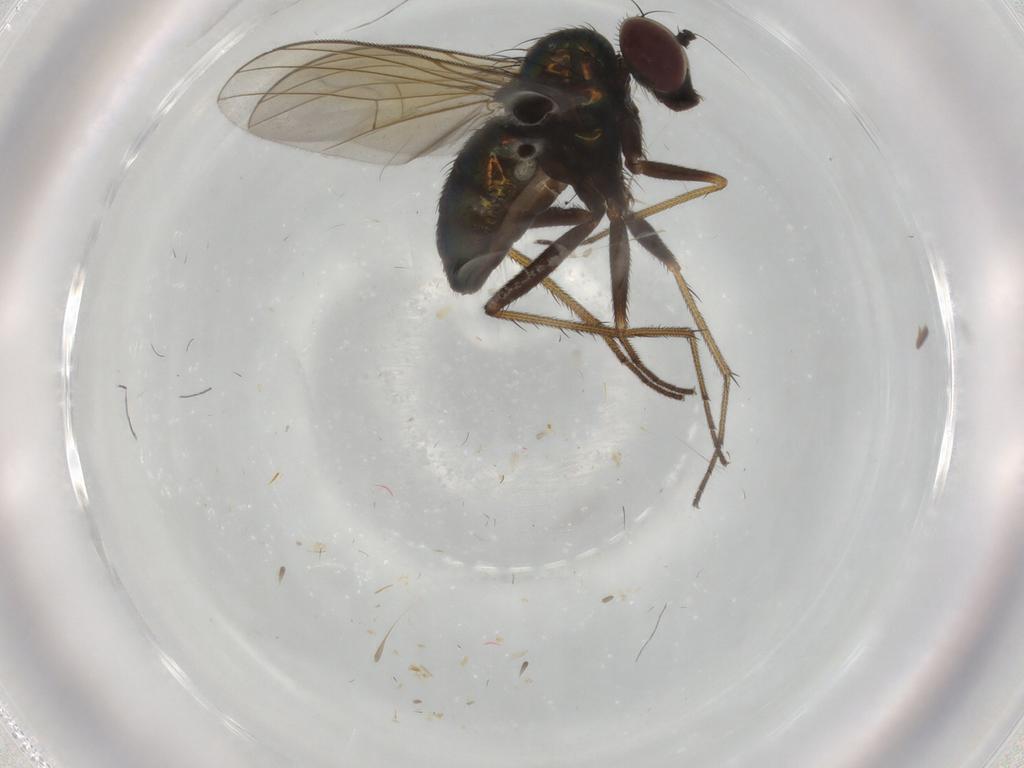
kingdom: Animalia
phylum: Arthropoda
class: Insecta
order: Diptera
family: Dolichopodidae
